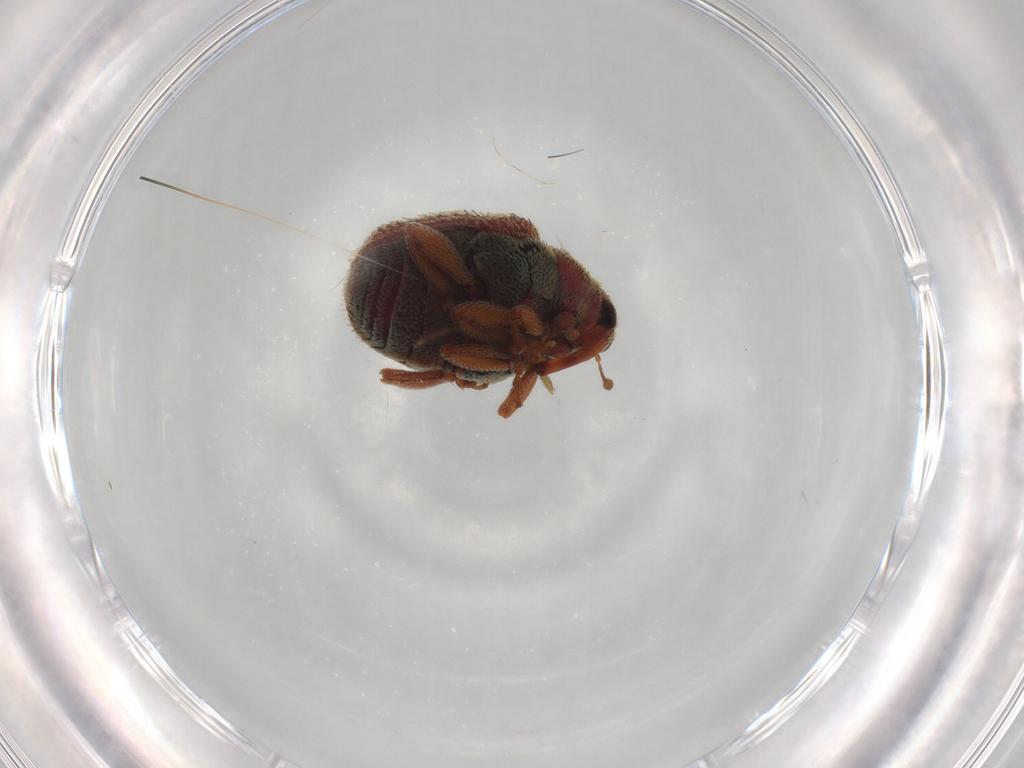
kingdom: Animalia
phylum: Arthropoda
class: Insecta
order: Coleoptera
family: Curculionidae
